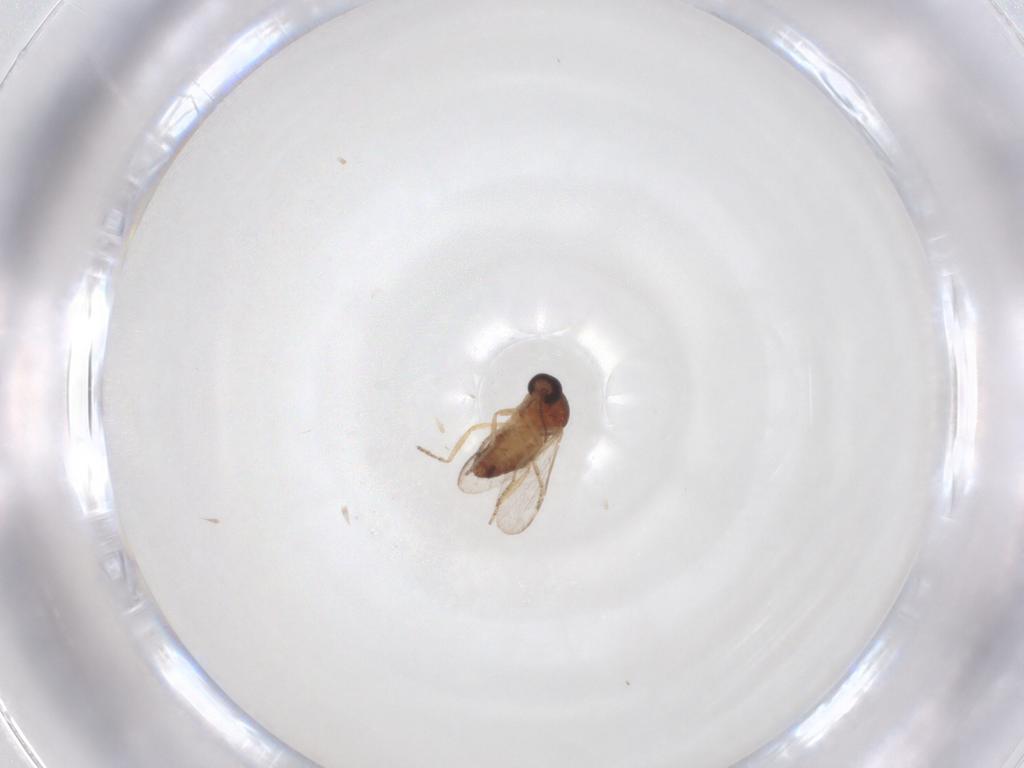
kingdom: Animalia
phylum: Arthropoda
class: Insecta
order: Diptera
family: Ceratopogonidae
